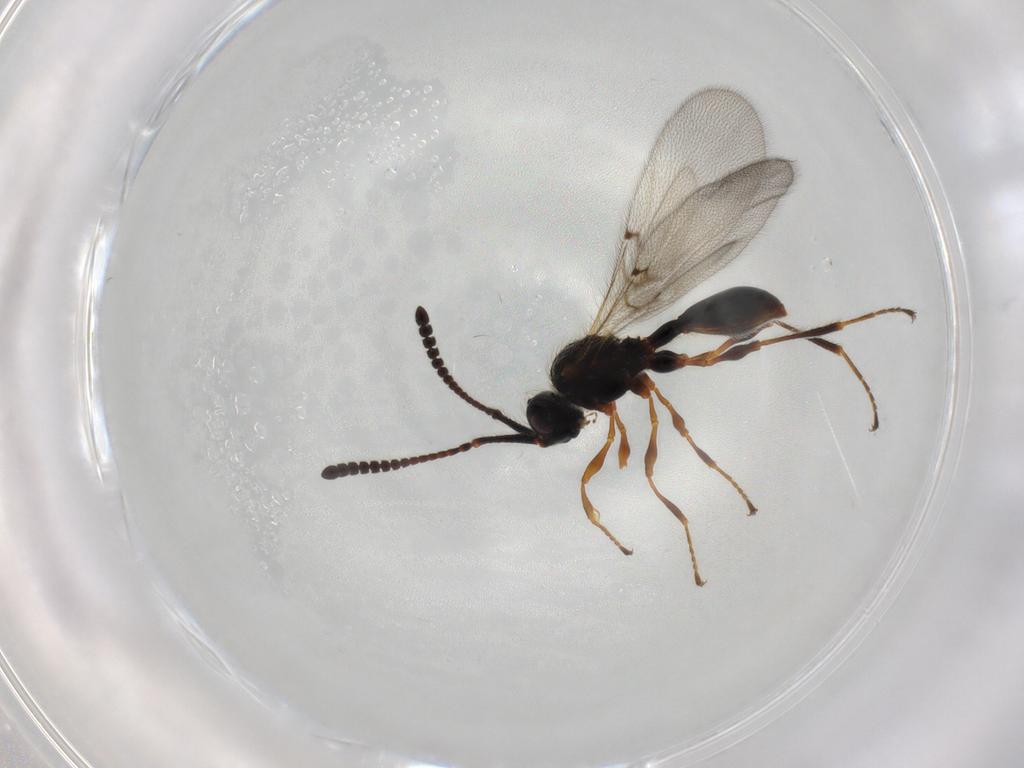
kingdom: Animalia
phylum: Arthropoda
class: Insecta
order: Hymenoptera
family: Diapriidae
